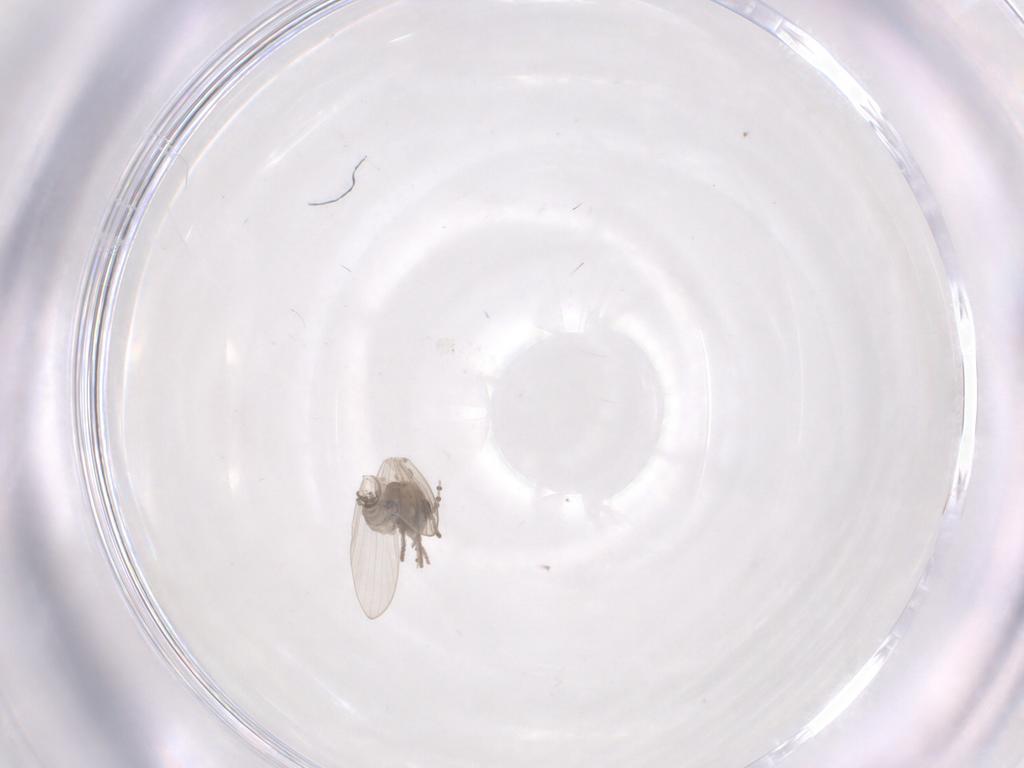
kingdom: Animalia
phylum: Arthropoda
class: Insecta
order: Diptera
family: Psychodidae
